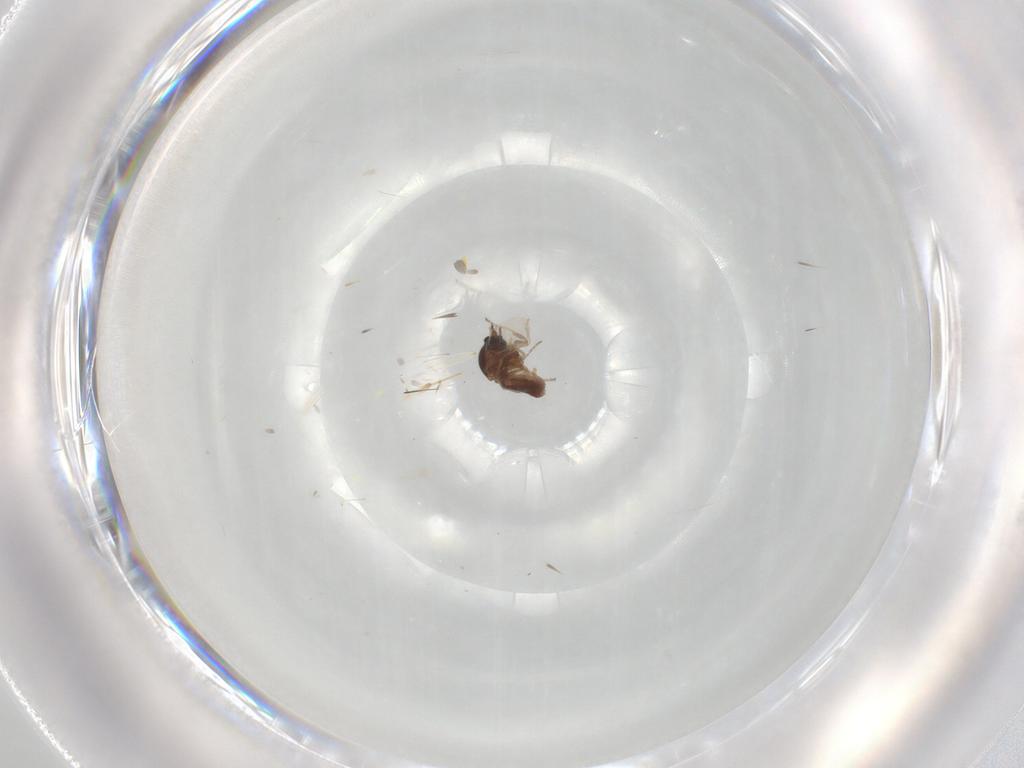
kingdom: Animalia
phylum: Arthropoda
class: Insecta
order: Diptera
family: Ceratopogonidae
